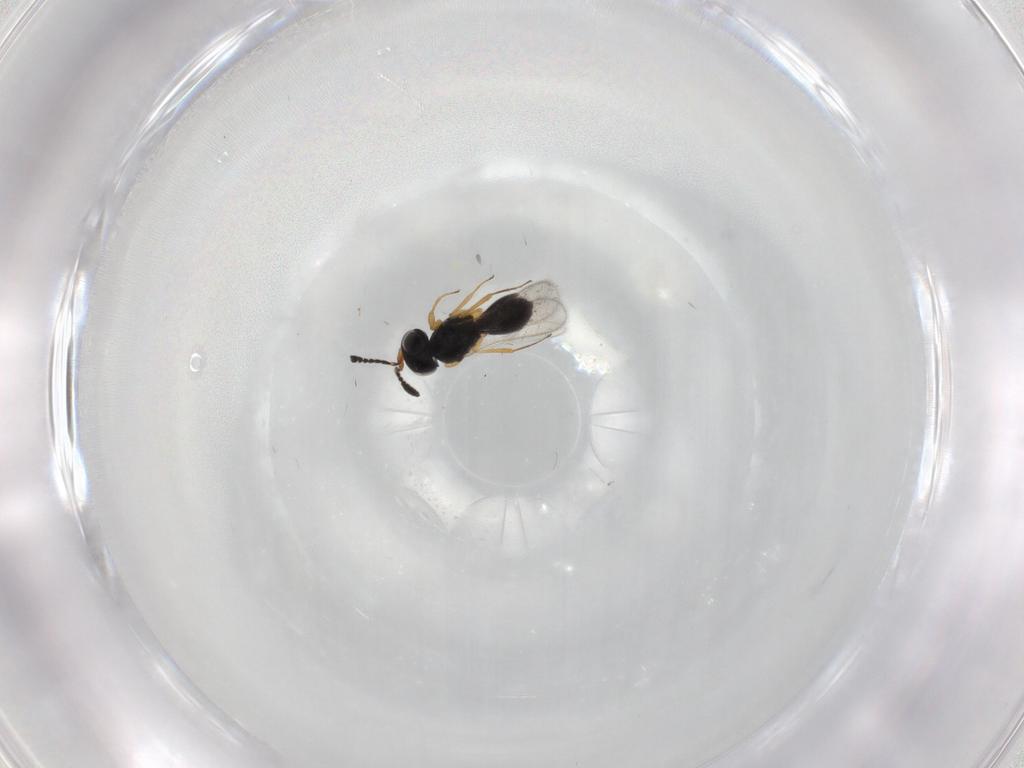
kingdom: Animalia
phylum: Arthropoda
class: Insecta
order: Hymenoptera
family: Scelionidae
